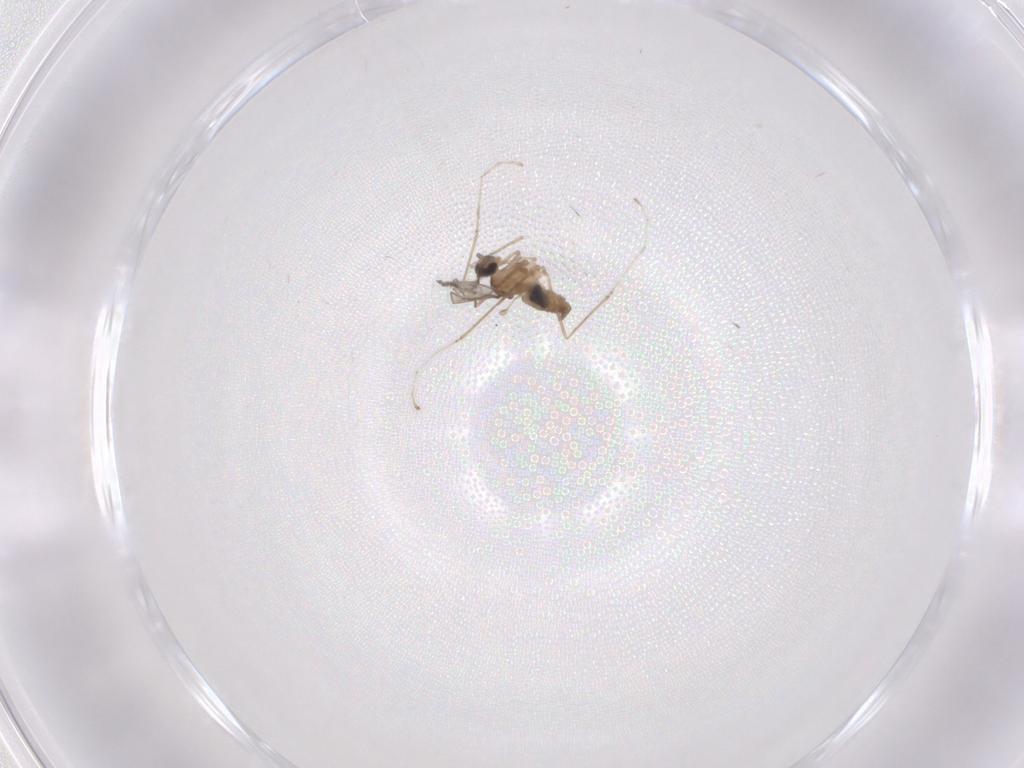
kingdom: Animalia
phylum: Arthropoda
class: Insecta
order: Diptera
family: Cecidomyiidae
